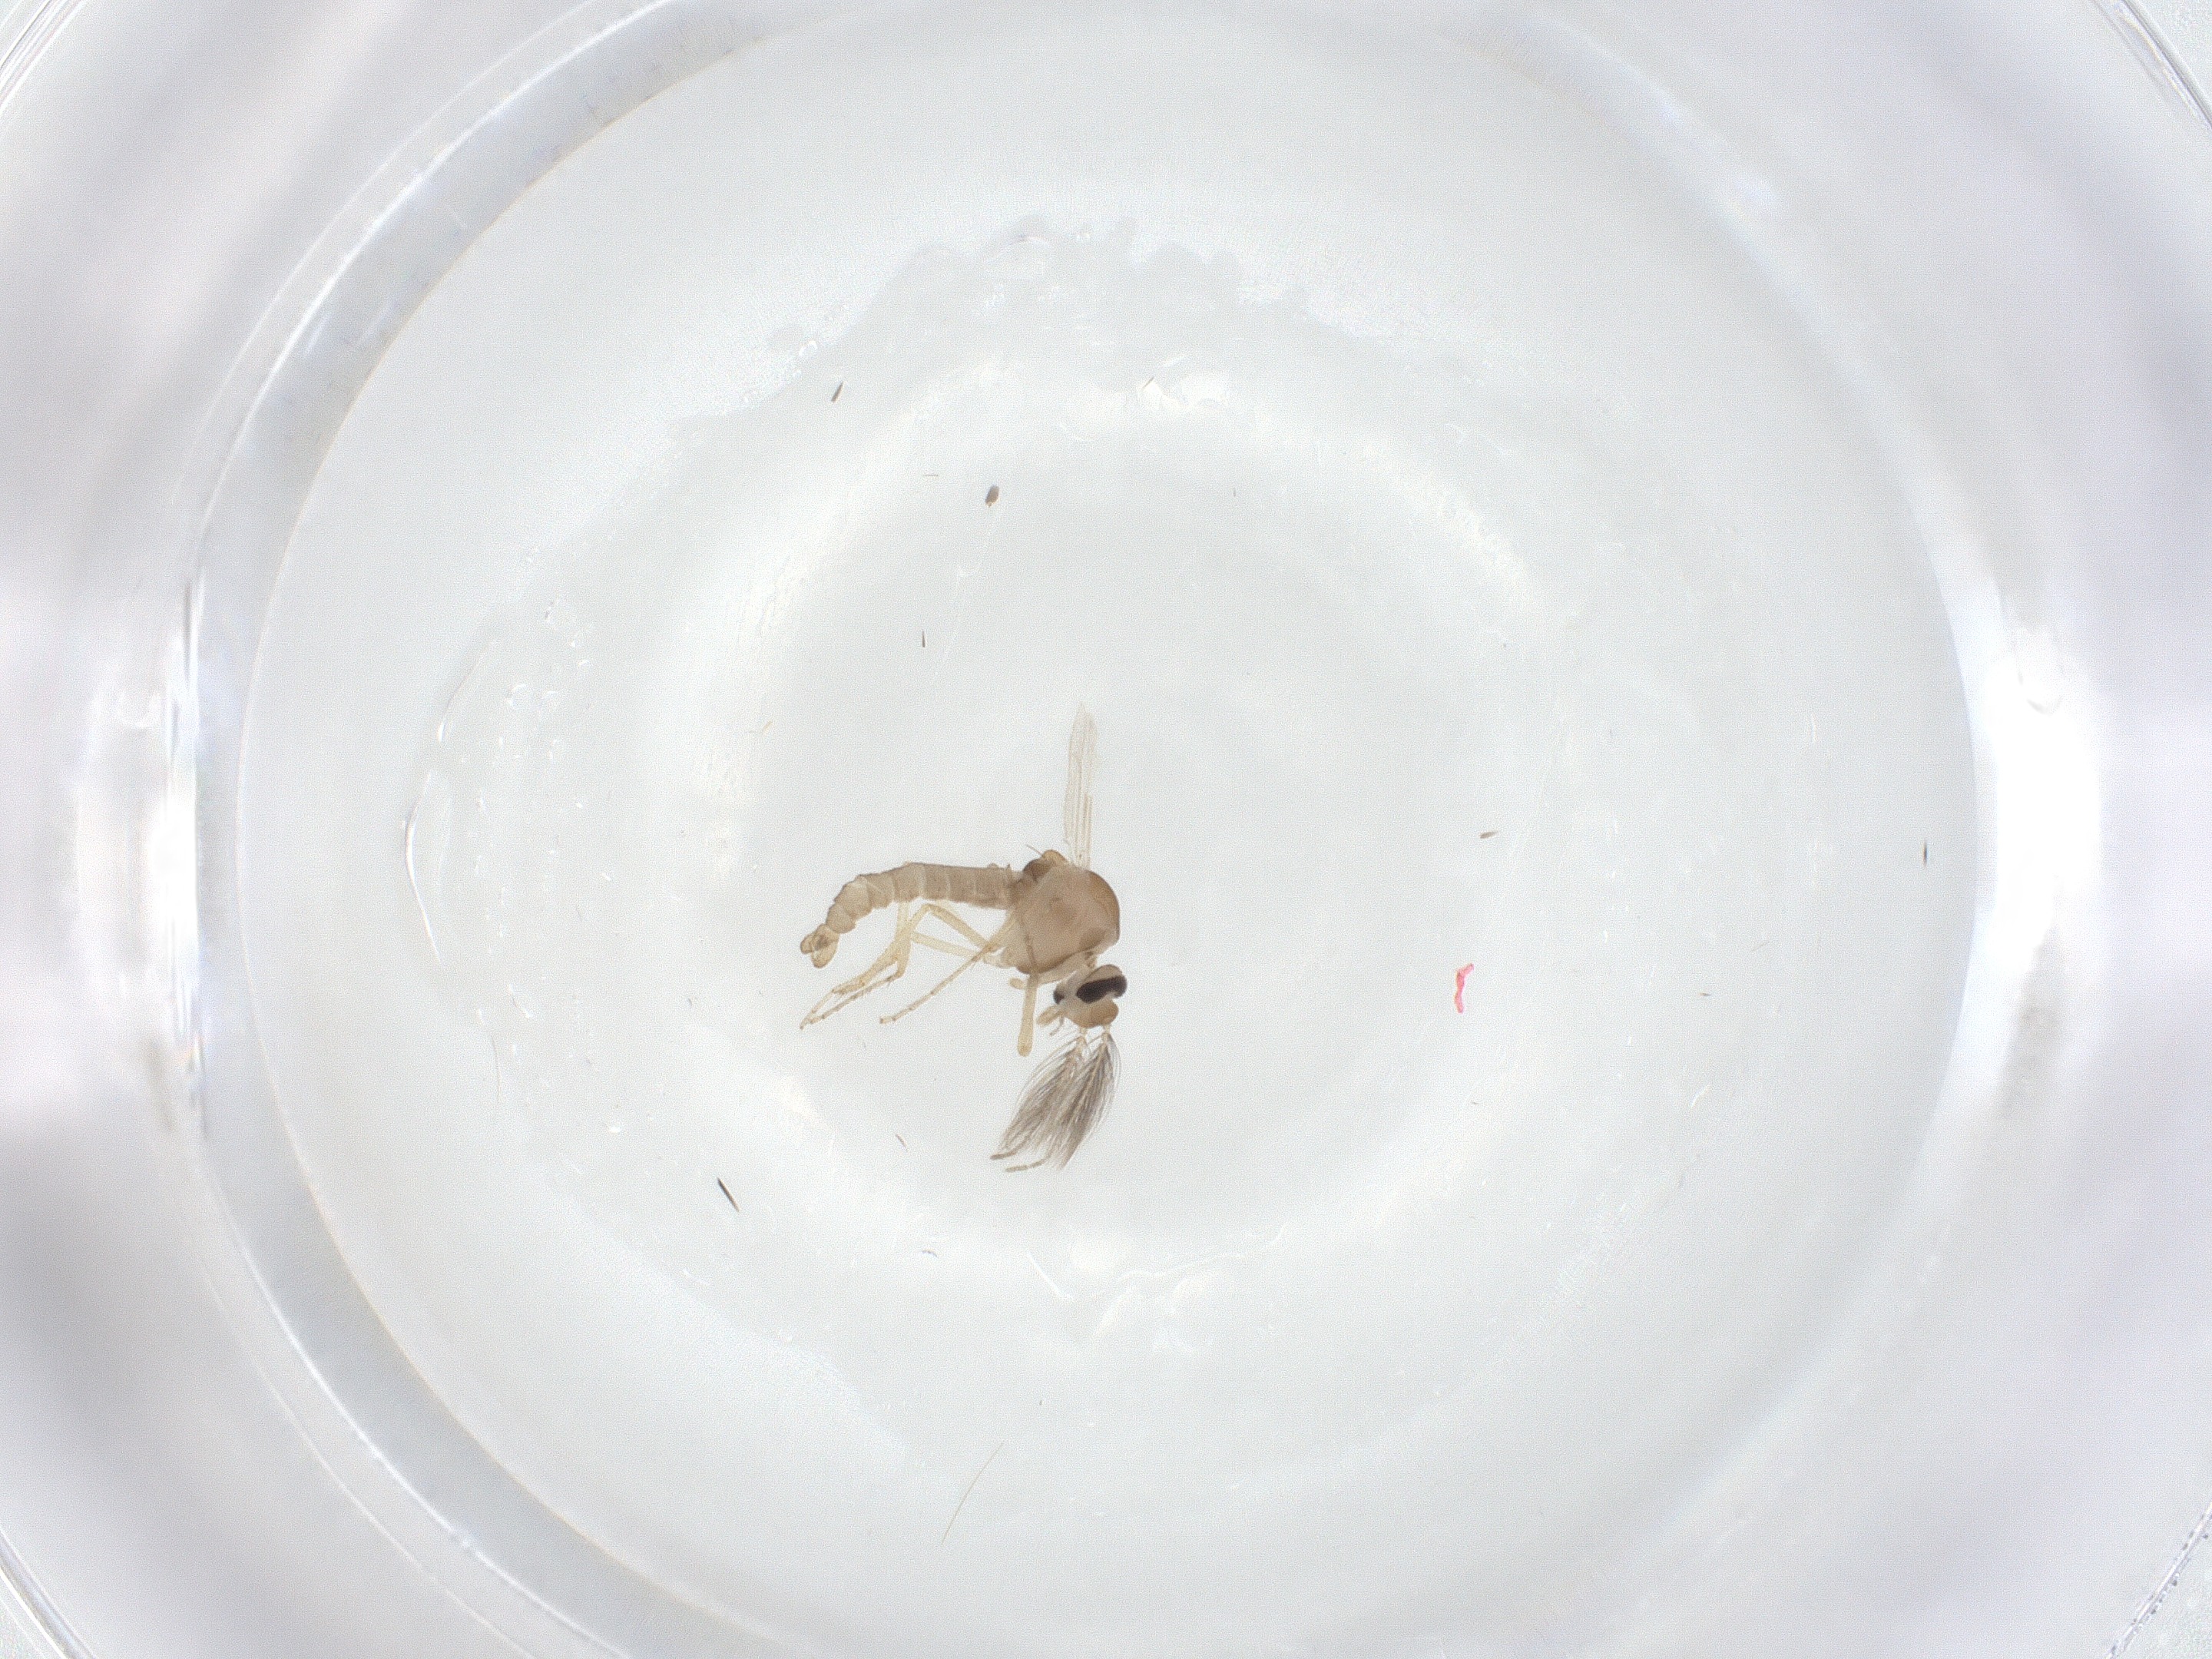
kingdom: Animalia
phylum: Arthropoda
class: Insecta
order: Diptera
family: Ceratopogonidae
